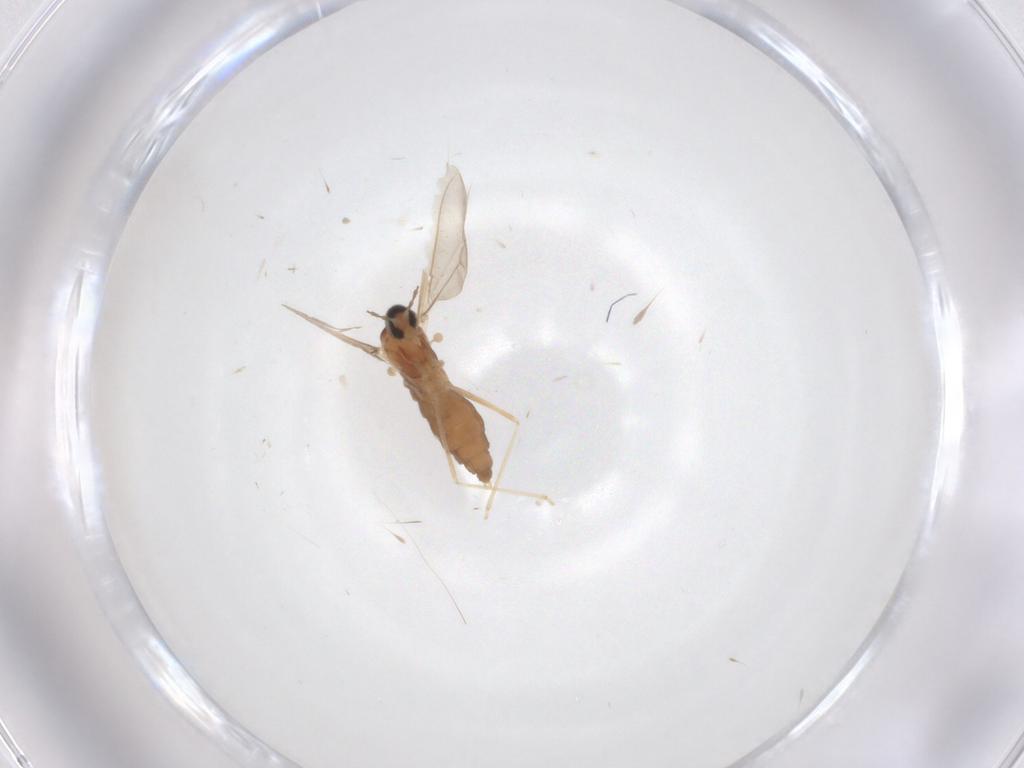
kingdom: Animalia
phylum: Arthropoda
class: Insecta
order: Diptera
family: Cecidomyiidae
